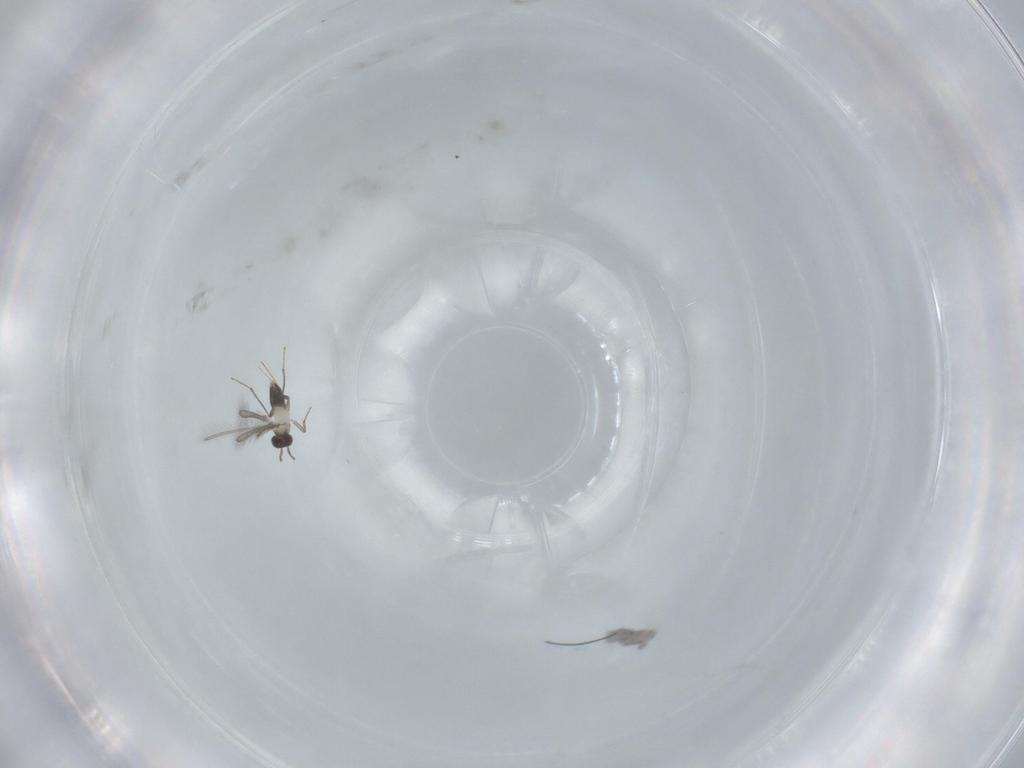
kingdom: Animalia
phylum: Arthropoda
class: Insecta
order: Hymenoptera
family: Mymaridae
